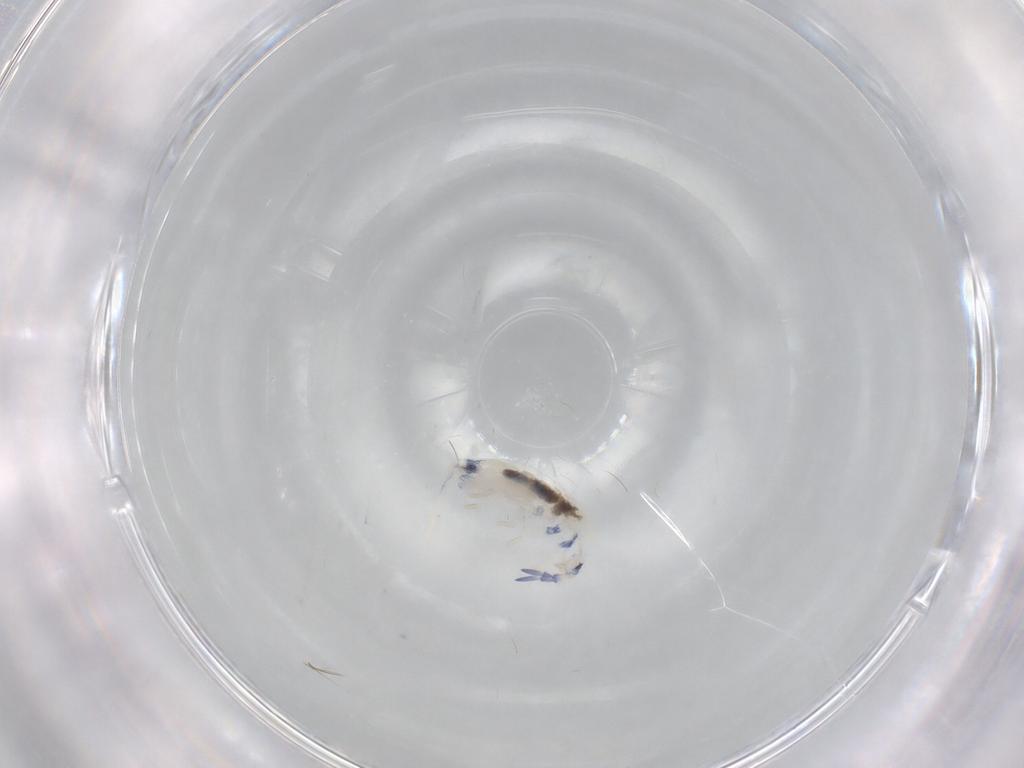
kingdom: Animalia
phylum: Arthropoda
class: Collembola
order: Entomobryomorpha
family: Entomobryidae
